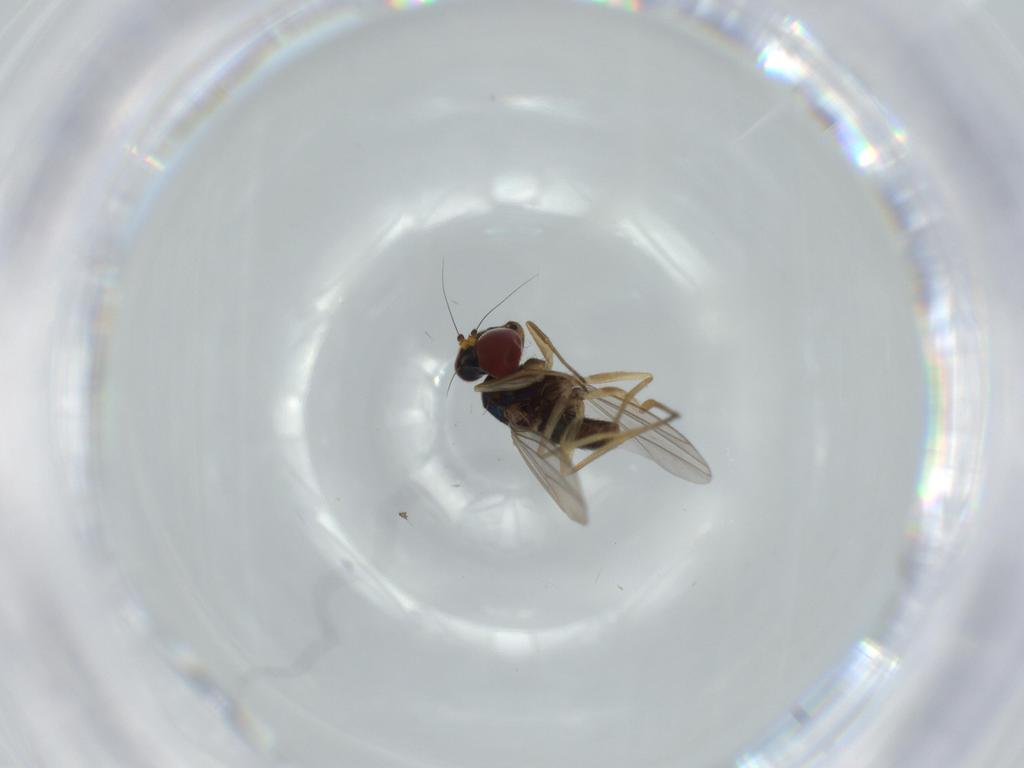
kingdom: Animalia
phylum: Arthropoda
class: Insecta
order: Diptera
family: Dolichopodidae
